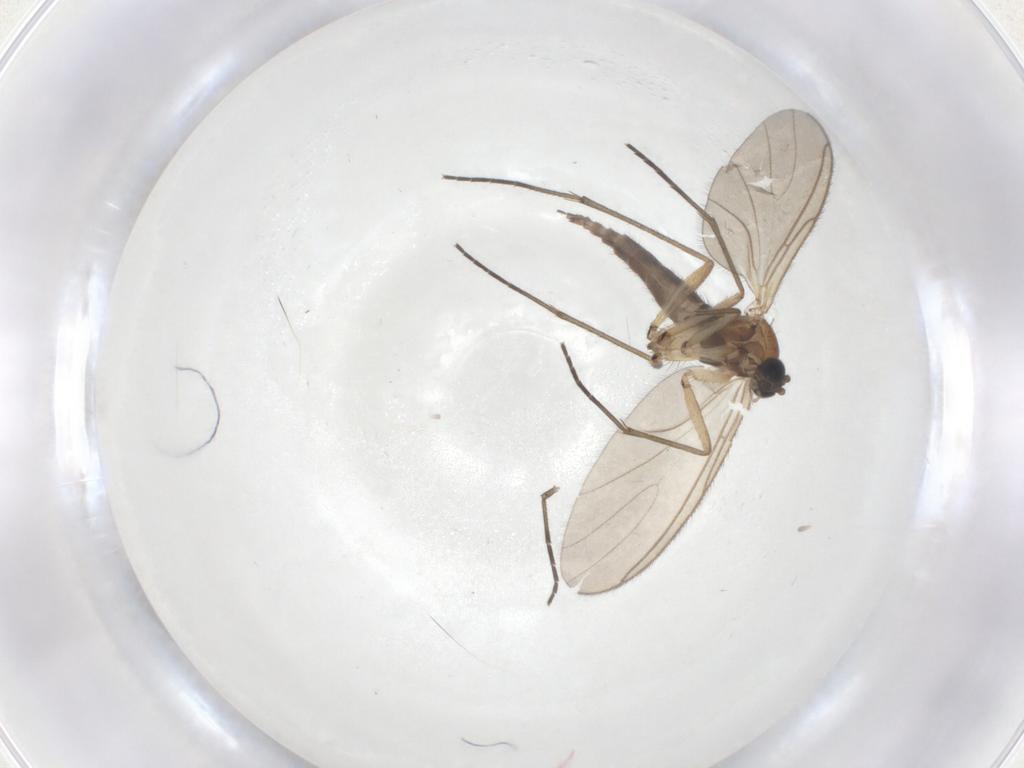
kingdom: Animalia
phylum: Arthropoda
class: Insecta
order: Diptera
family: Sciaridae
